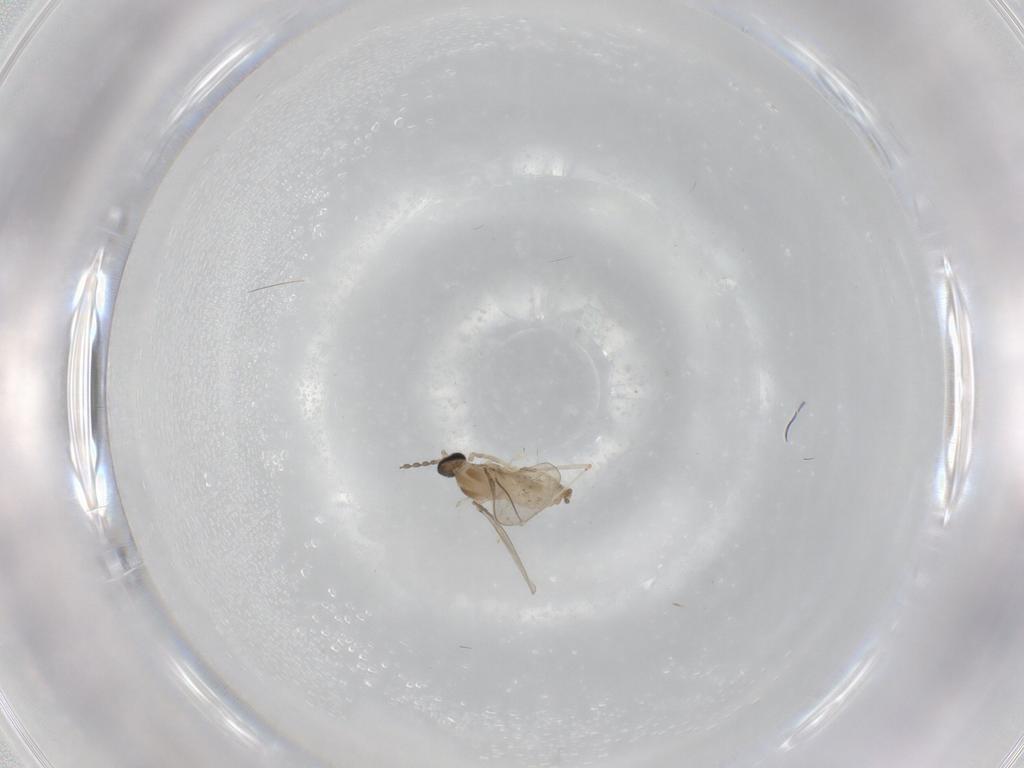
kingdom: Animalia
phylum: Arthropoda
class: Insecta
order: Diptera
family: Cecidomyiidae
